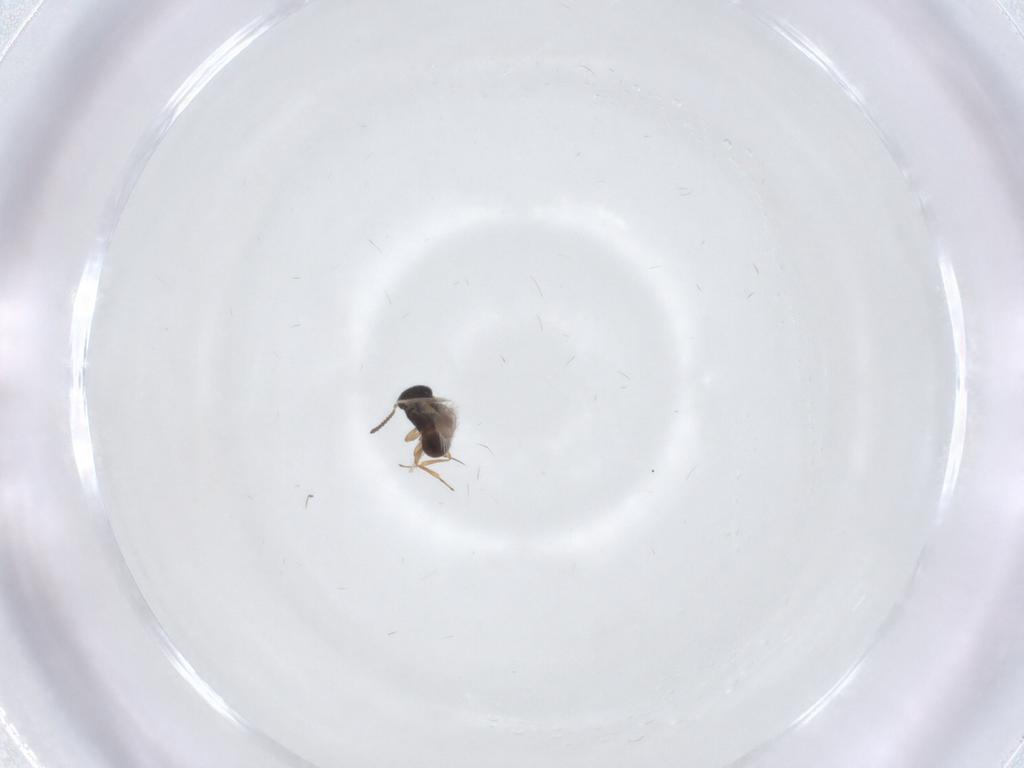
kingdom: Animalia
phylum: Arthropoda
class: Insecta
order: Hymenoptera
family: Scelionidae
